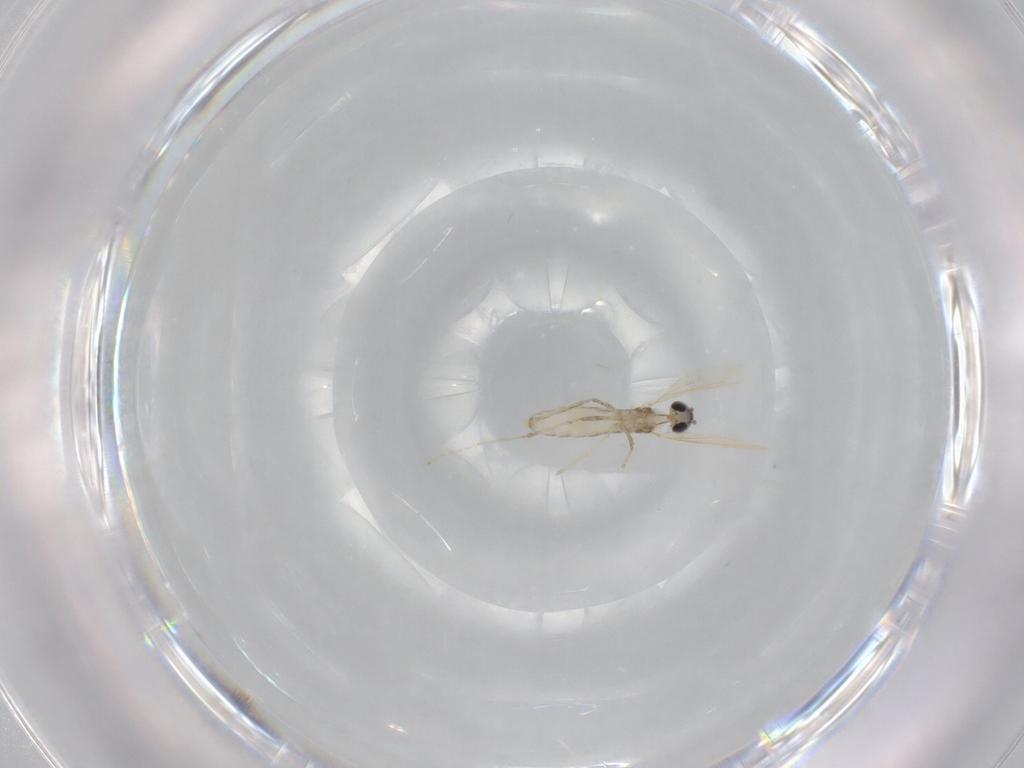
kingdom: Animalia
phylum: Arthropoda
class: Insecta
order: Diptera
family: Cecidomyiidae
